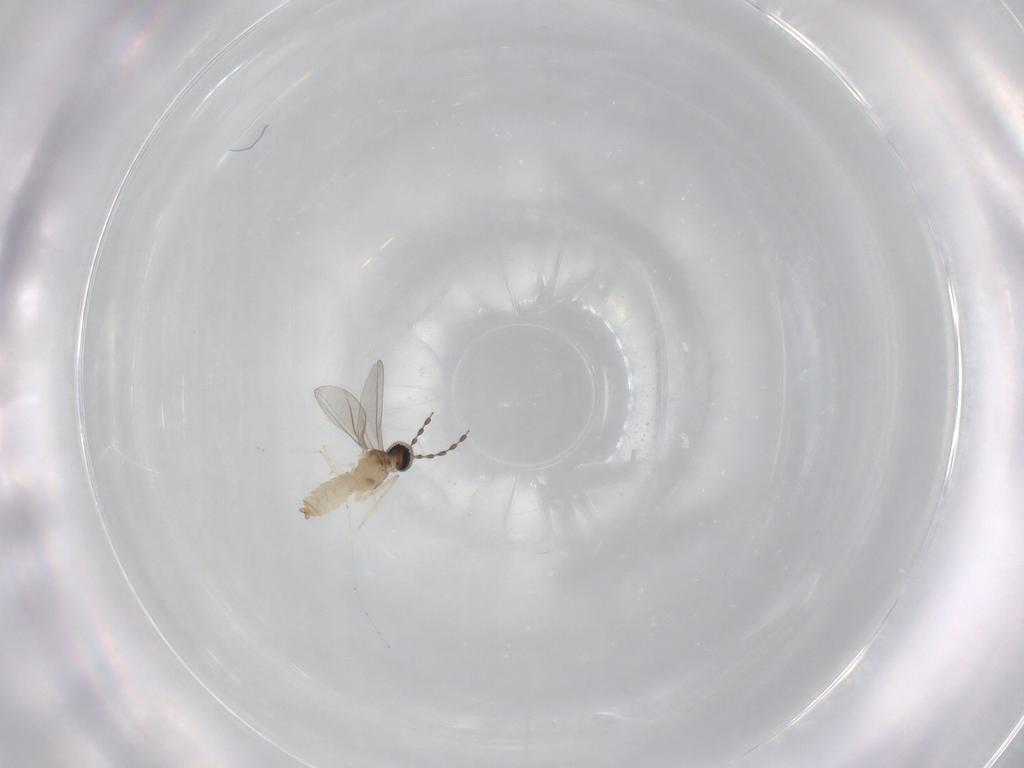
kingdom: Animalia
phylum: Arthropoda
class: Insecta
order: Diptera
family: Cecidomyiidae
